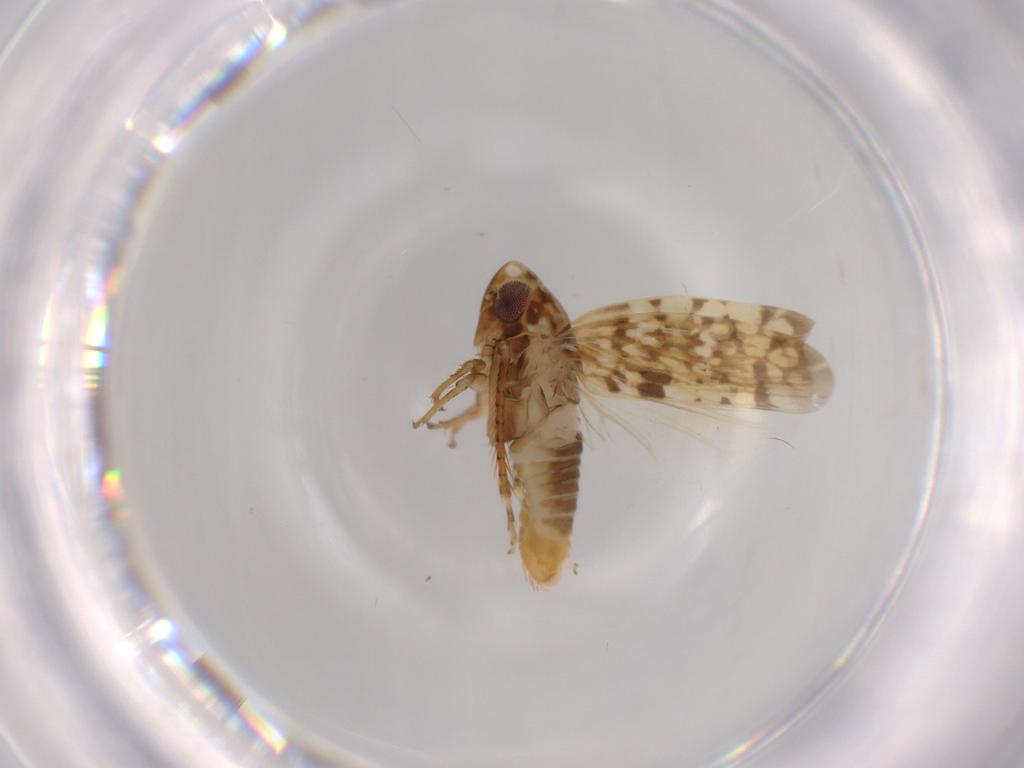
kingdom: Animalia
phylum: Arthropoda
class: Insecta
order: Hemiptera
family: Cicadellidae
